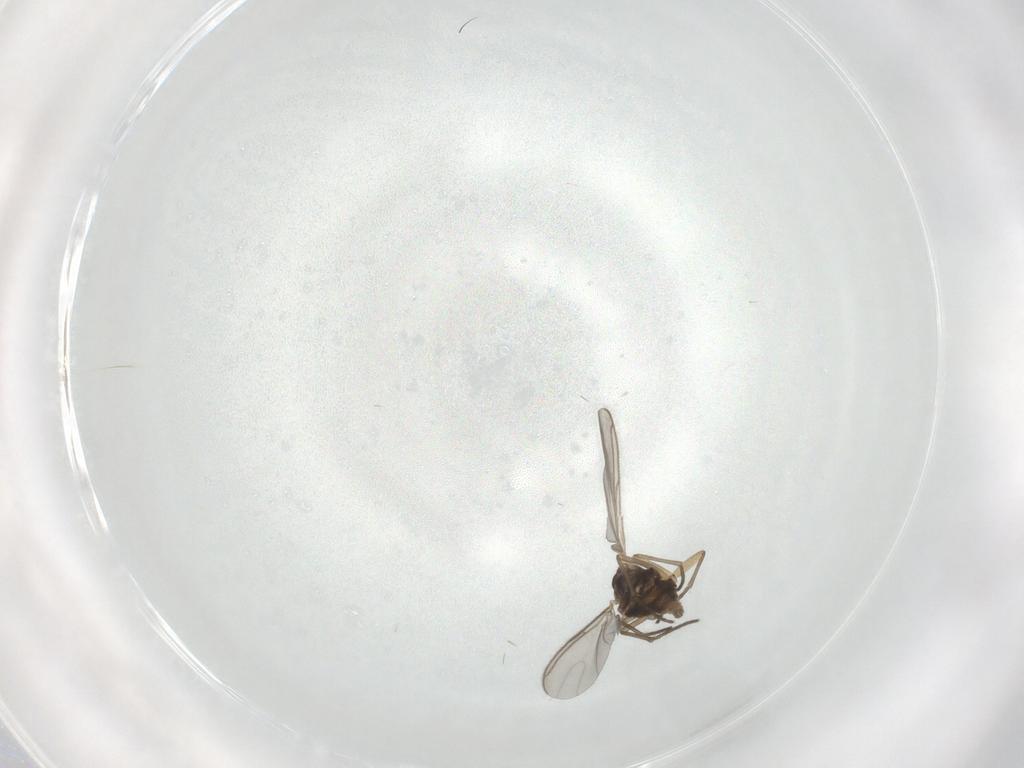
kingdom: Animalia
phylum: Arthropoda
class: Insecta
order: Diptera
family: Sciaridae
